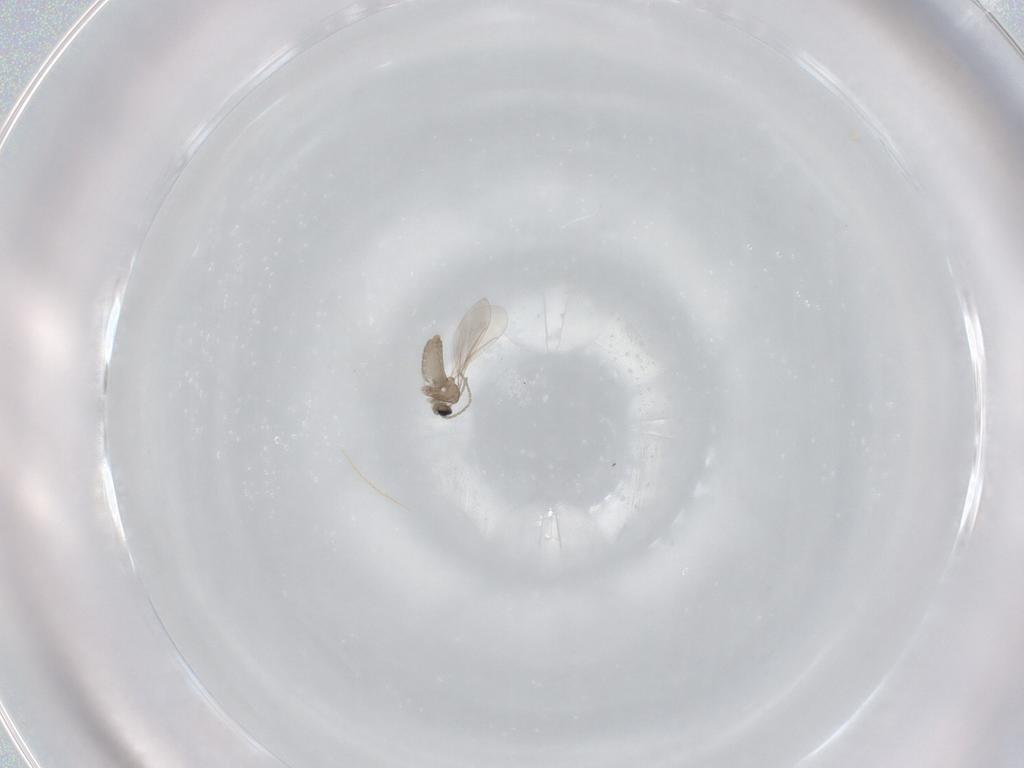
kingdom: Animalia
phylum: Arthropoda
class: Insecta
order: Diptera
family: Cecidomyiidae
